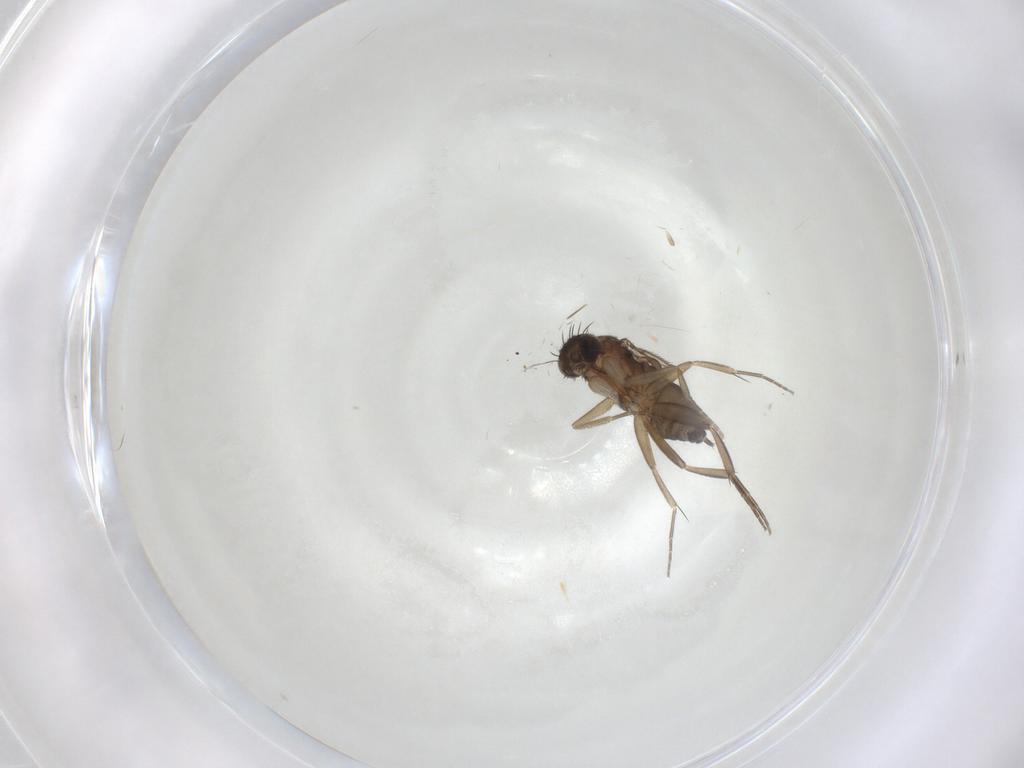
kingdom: Animalia
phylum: Arthropoda
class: Insecta
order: Diptera
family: Phoridae
